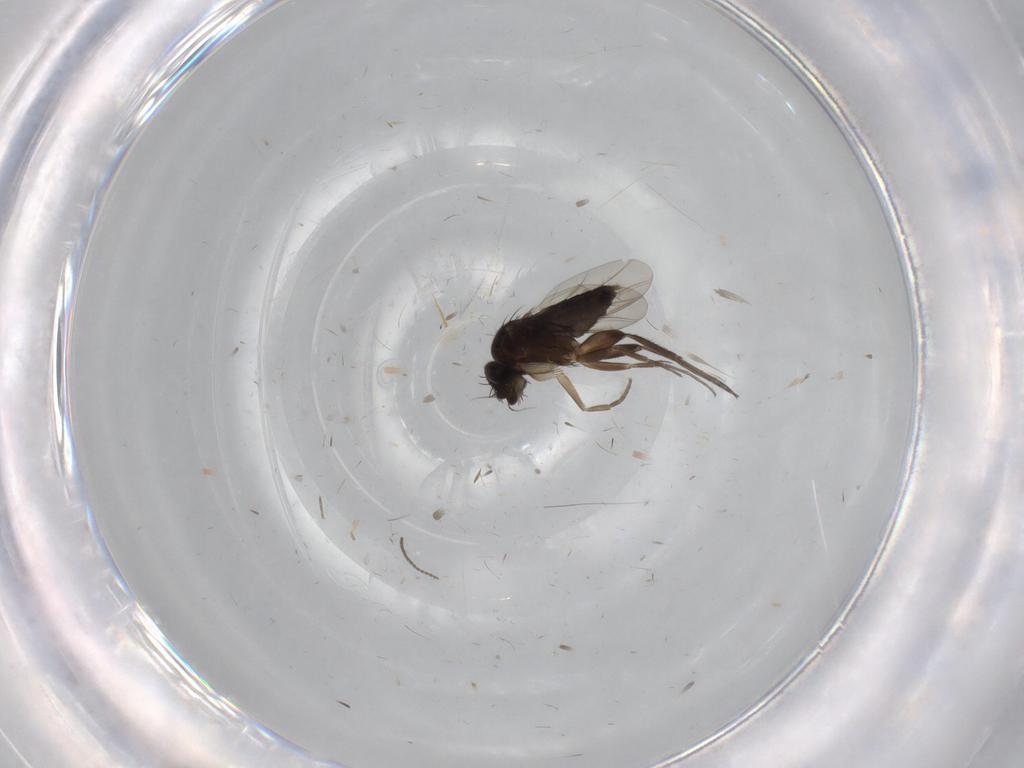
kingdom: Animalia
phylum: Arthropoda
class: Insecta
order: Diptera
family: Phoridae
